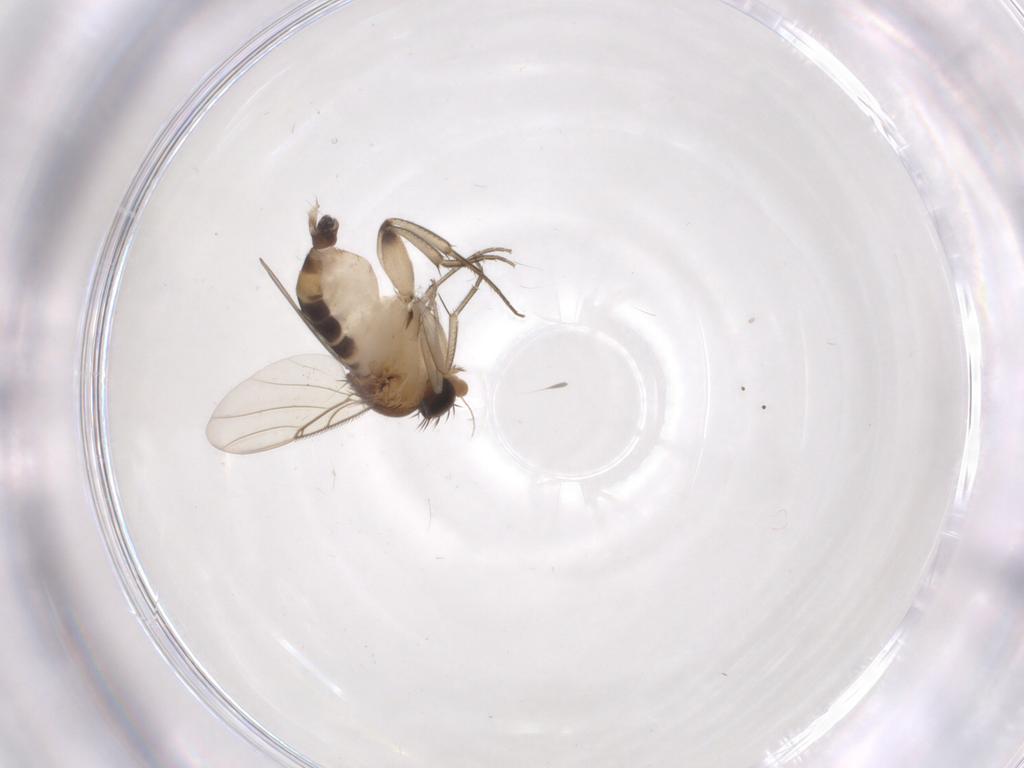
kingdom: Animalia
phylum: Arthropoda
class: Insecta
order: Diptera
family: Phoridae
